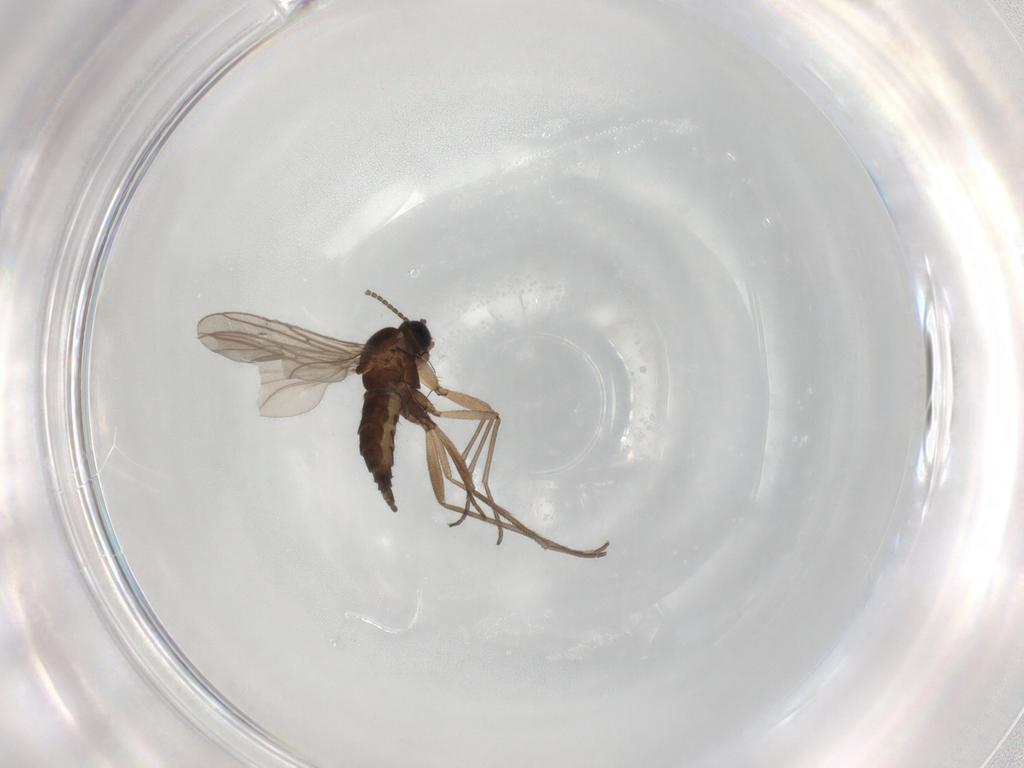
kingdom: Animalia
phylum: Arthropoda
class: Insecta
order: Diptera
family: Sciaridae
